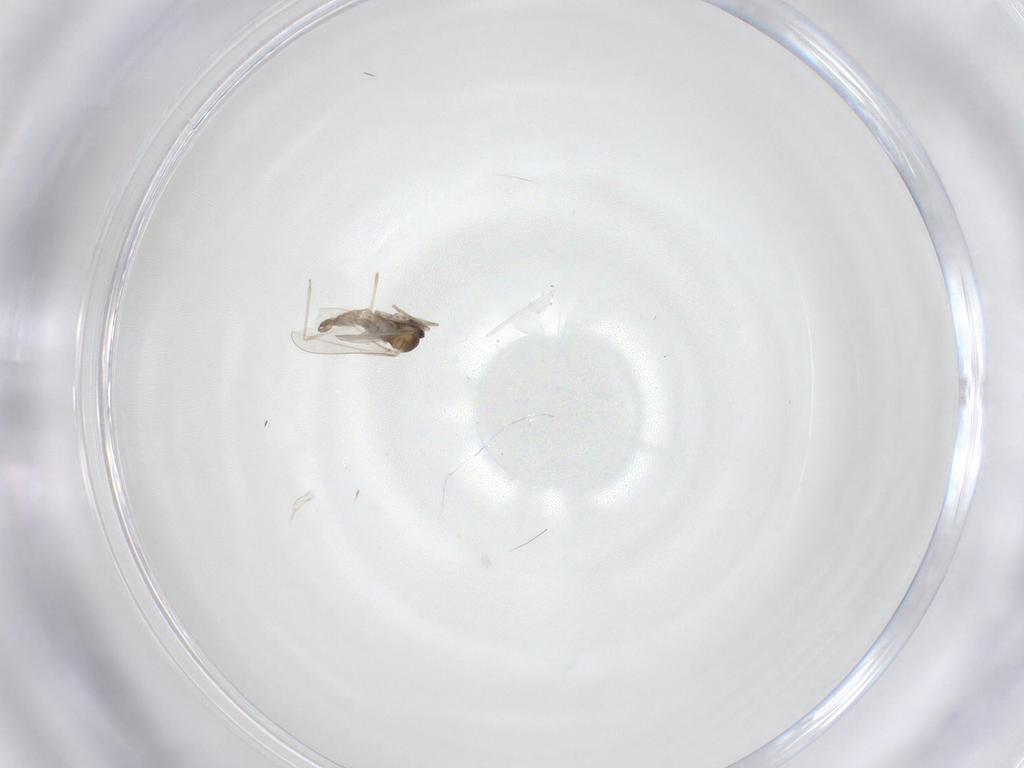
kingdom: Animalia
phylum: Arthropoda
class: Insecta
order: Diptera
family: Cecidomyiidae
